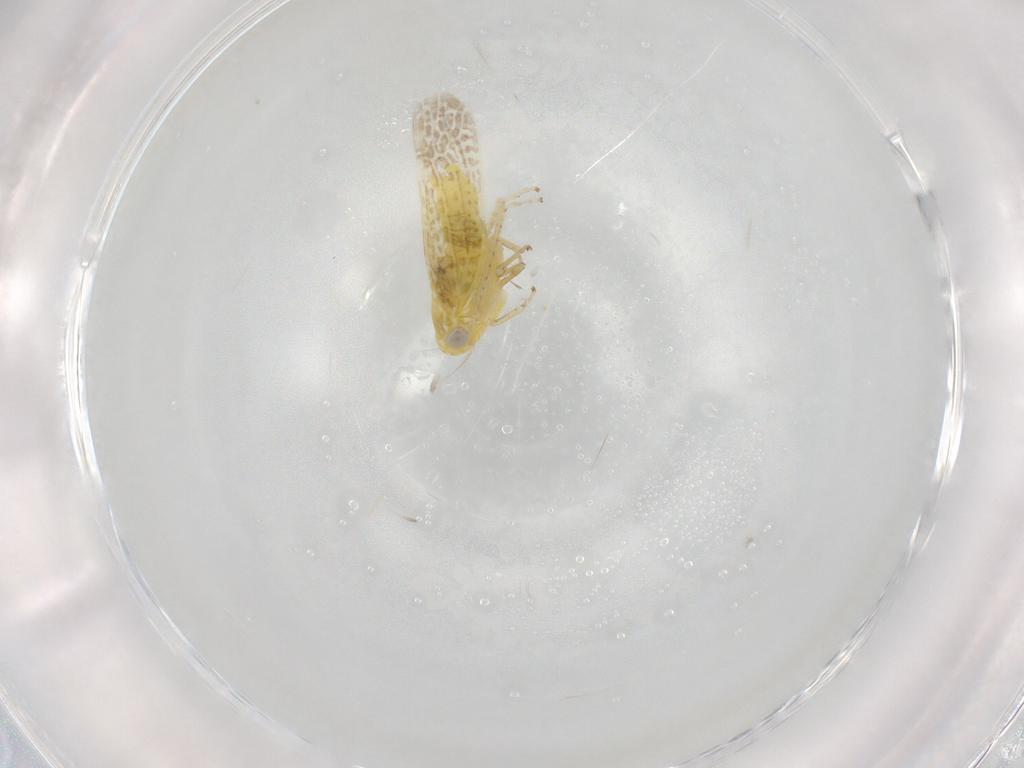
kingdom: Animalia
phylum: Arthropoda
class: Insecta
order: Hemiptera
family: Cicadellidae
